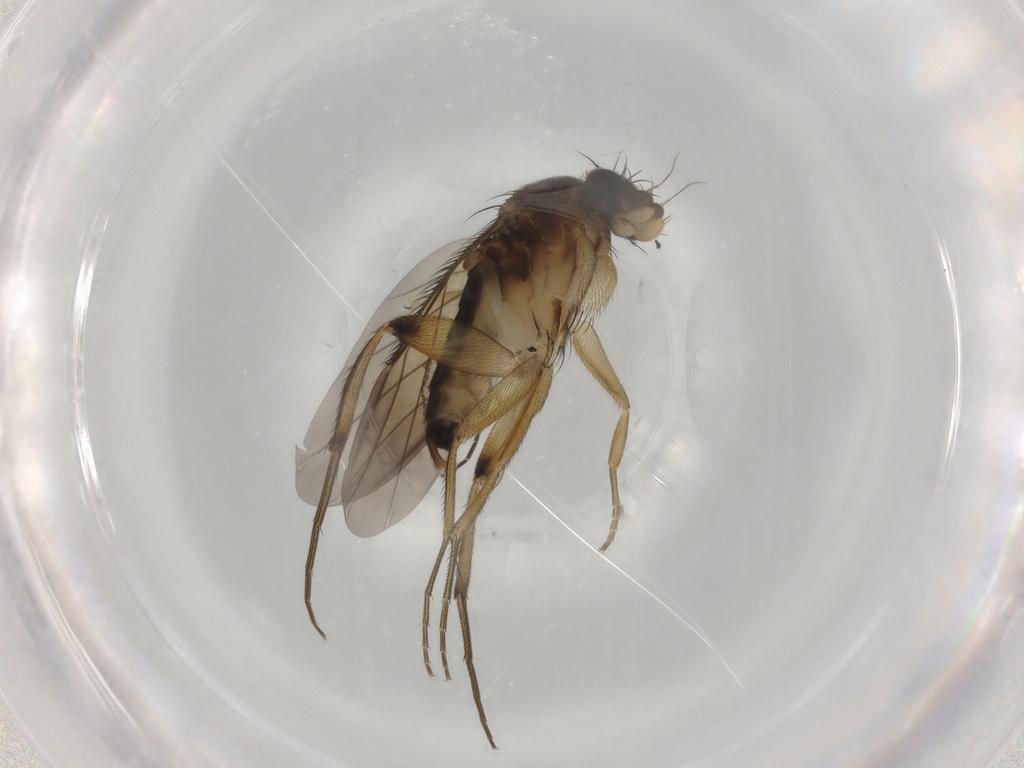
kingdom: Animalia
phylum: Arthropoda
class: Insecta
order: Diptera
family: Phoridae
